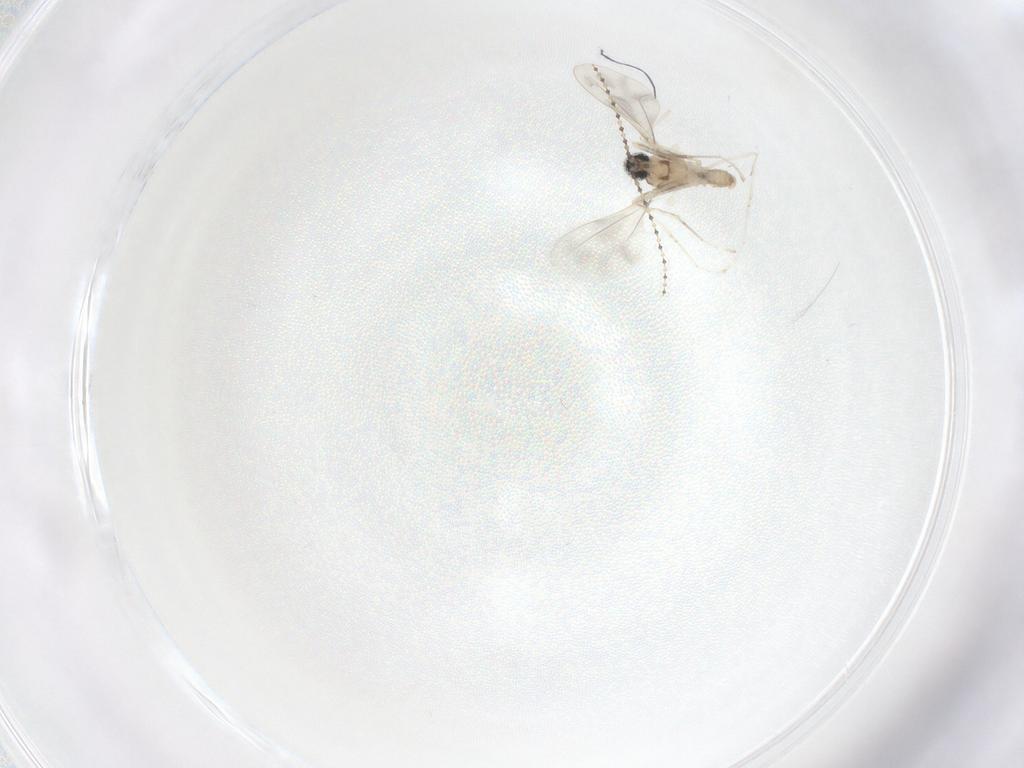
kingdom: Animalia
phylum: Arthropoda
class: Insecta
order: Diptera
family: Cecidomyiidae
